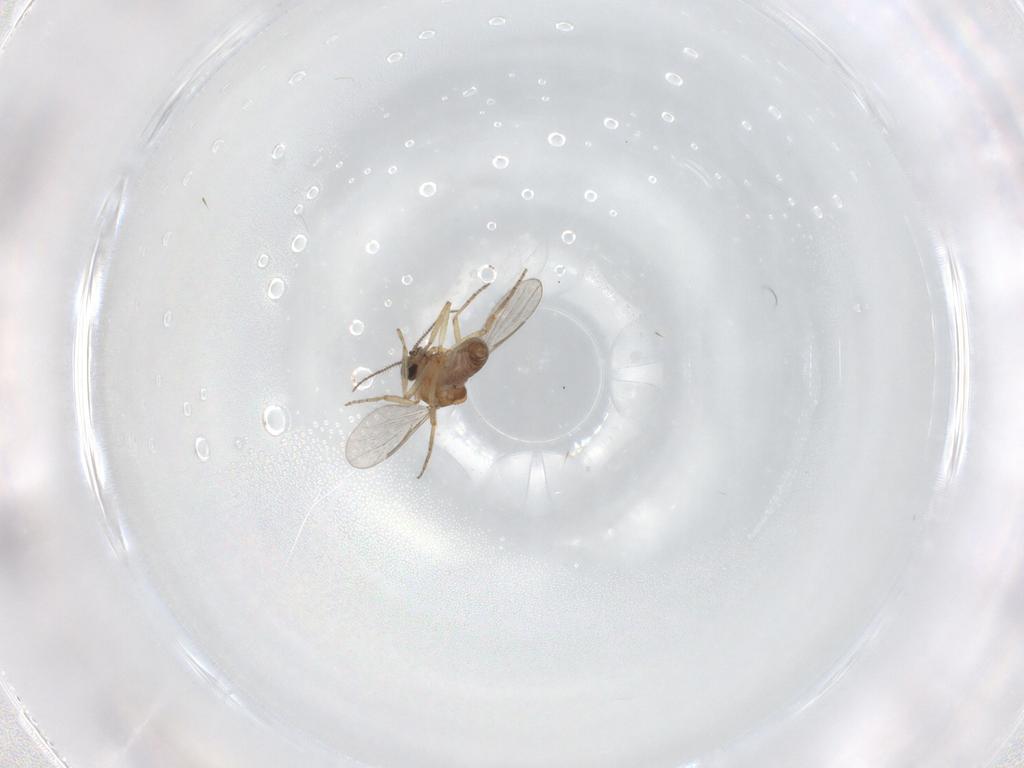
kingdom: Animalia
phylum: Arthropoda
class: Insecta
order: Diptera
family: Ceratopogonidae
